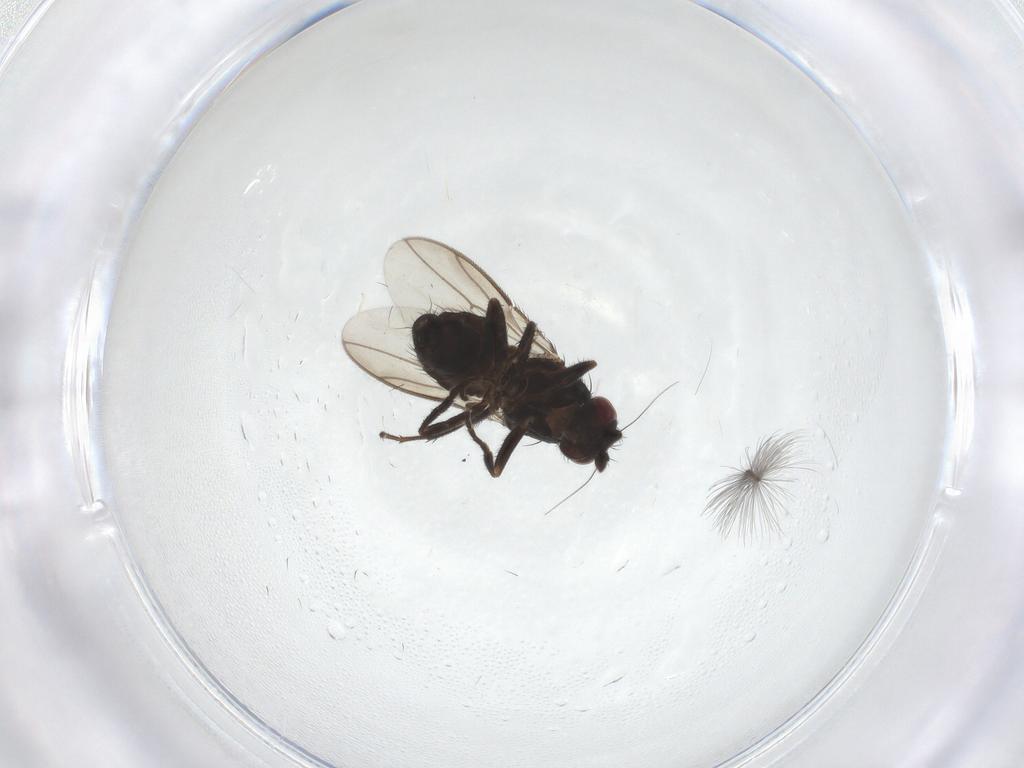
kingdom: Animalia
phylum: Arthropoda
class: Insecta
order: Diptera
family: Sphaeroceridae
